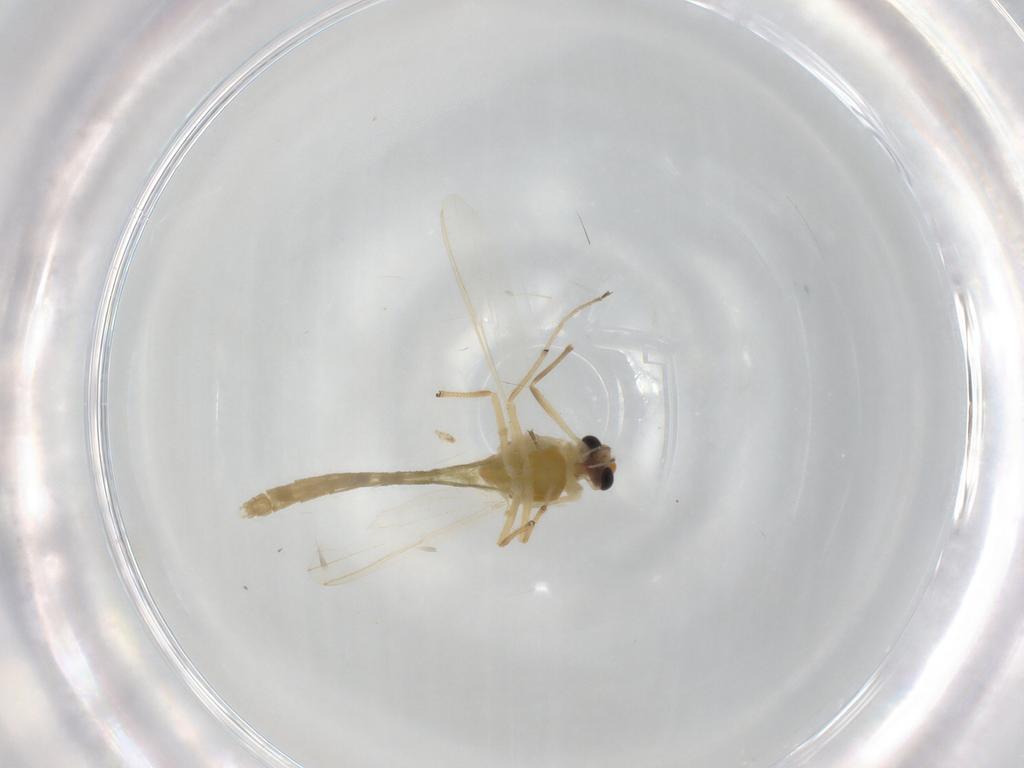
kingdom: Animalia
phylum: Arthropoda
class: Insecta
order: Diptera
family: Chironomidae
